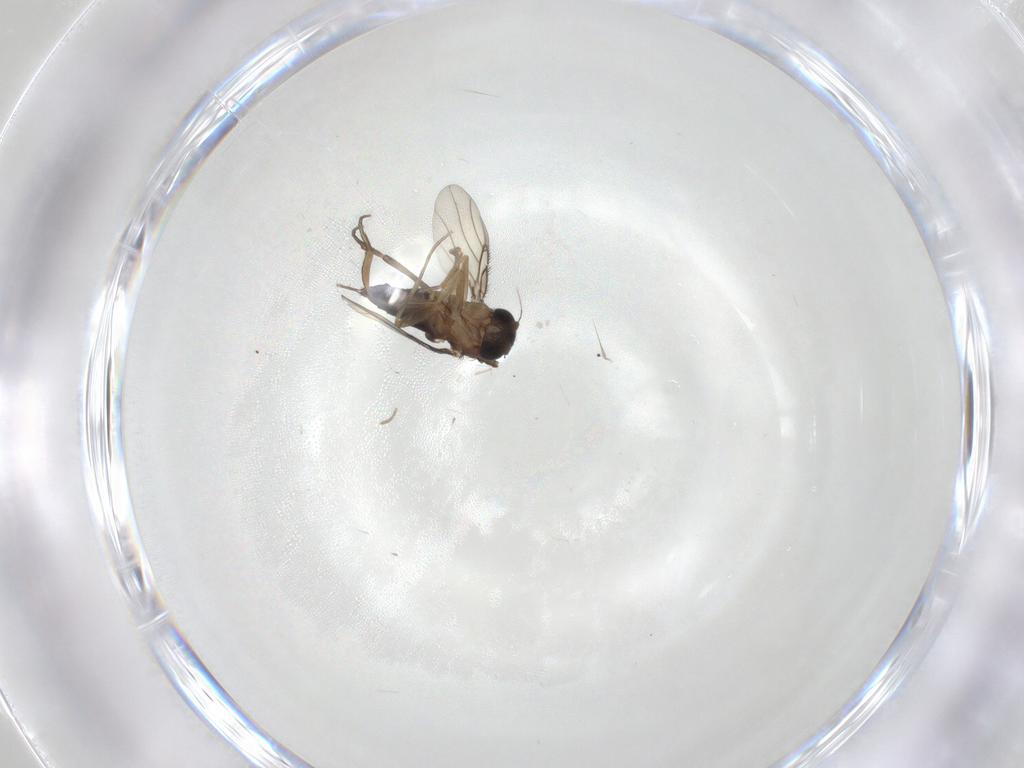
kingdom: Animalia
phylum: Arthropoda
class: Insecta
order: Diptera
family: Phoridae
